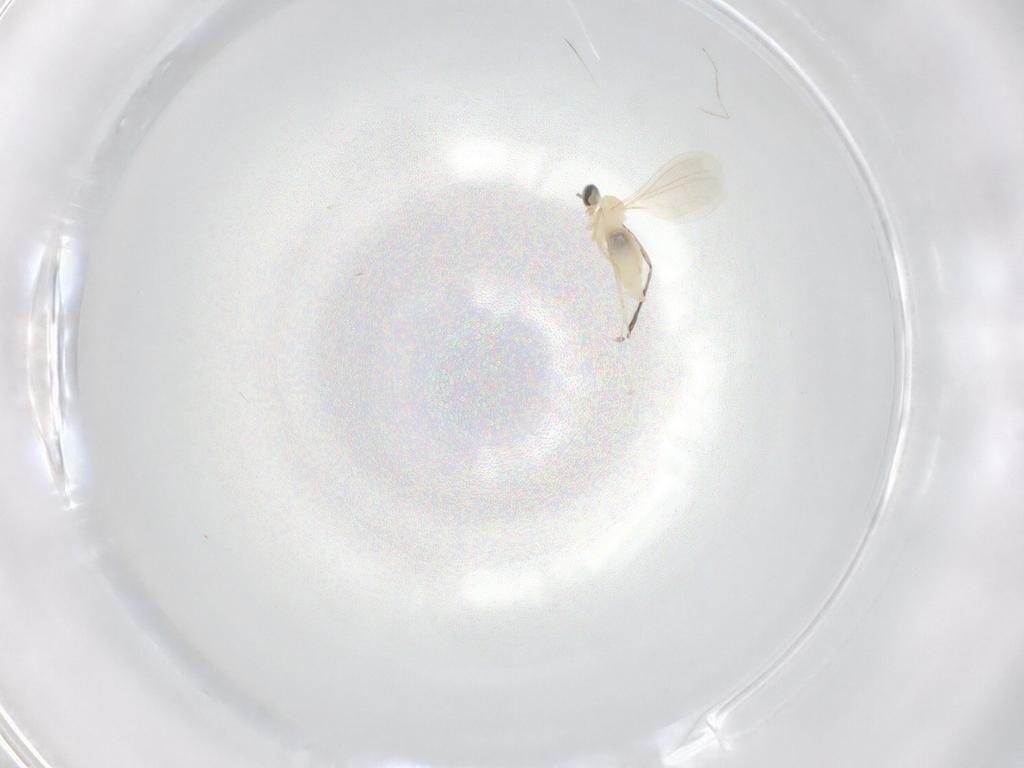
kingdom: Animalia
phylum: Arthropoda
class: Insecta
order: Diptera
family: Cecidomyiidae
